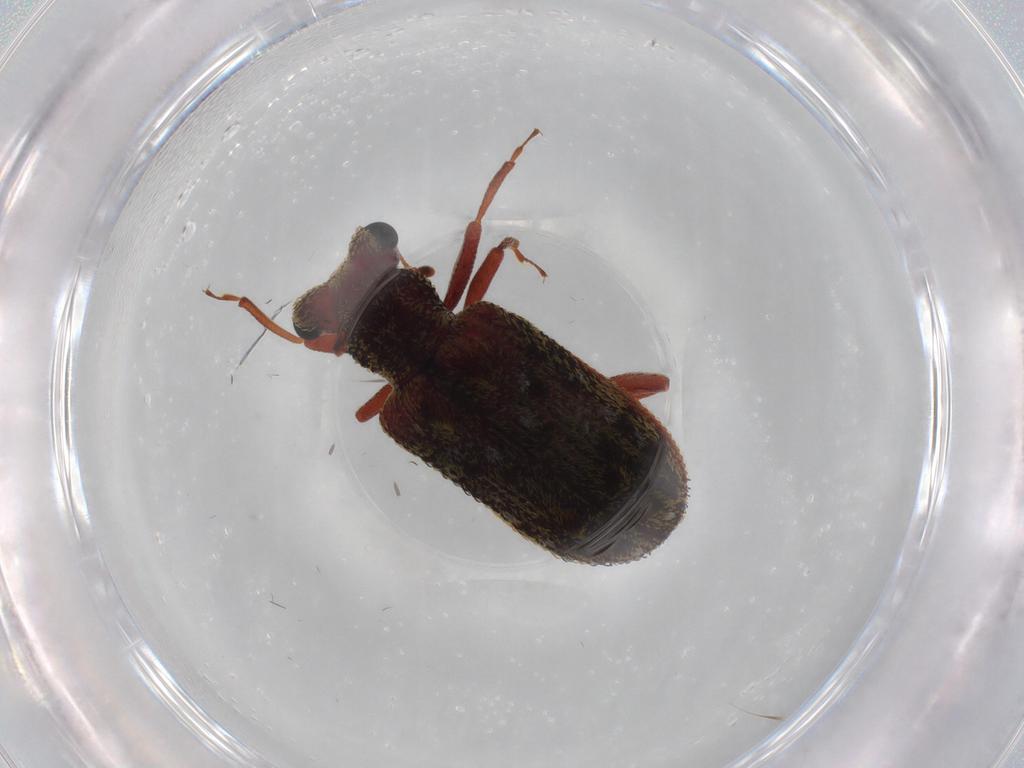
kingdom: Animalia
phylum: Arthropoda
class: Insecta
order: Coleoptera
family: Zopheridae
